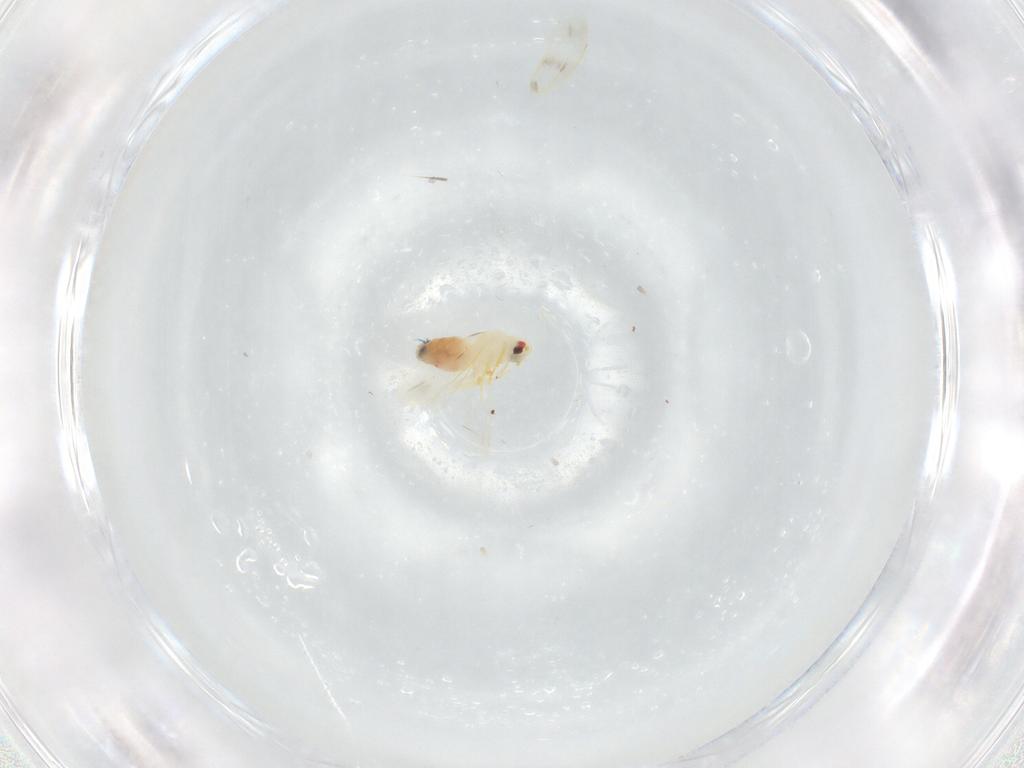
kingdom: Animalia
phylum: Arthropoda
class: Insecta
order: Hemiptera
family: Aleyrodidae
